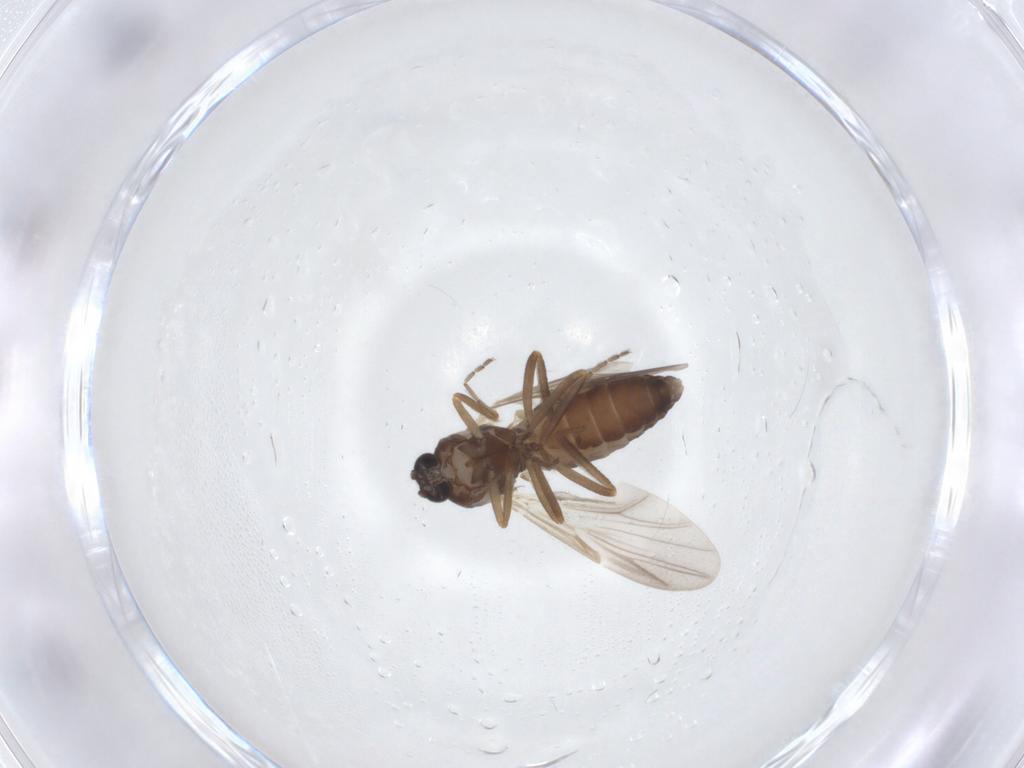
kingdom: Animalia
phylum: Arthropoda
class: Insecta
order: Diptera
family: Ceratopogonidae
